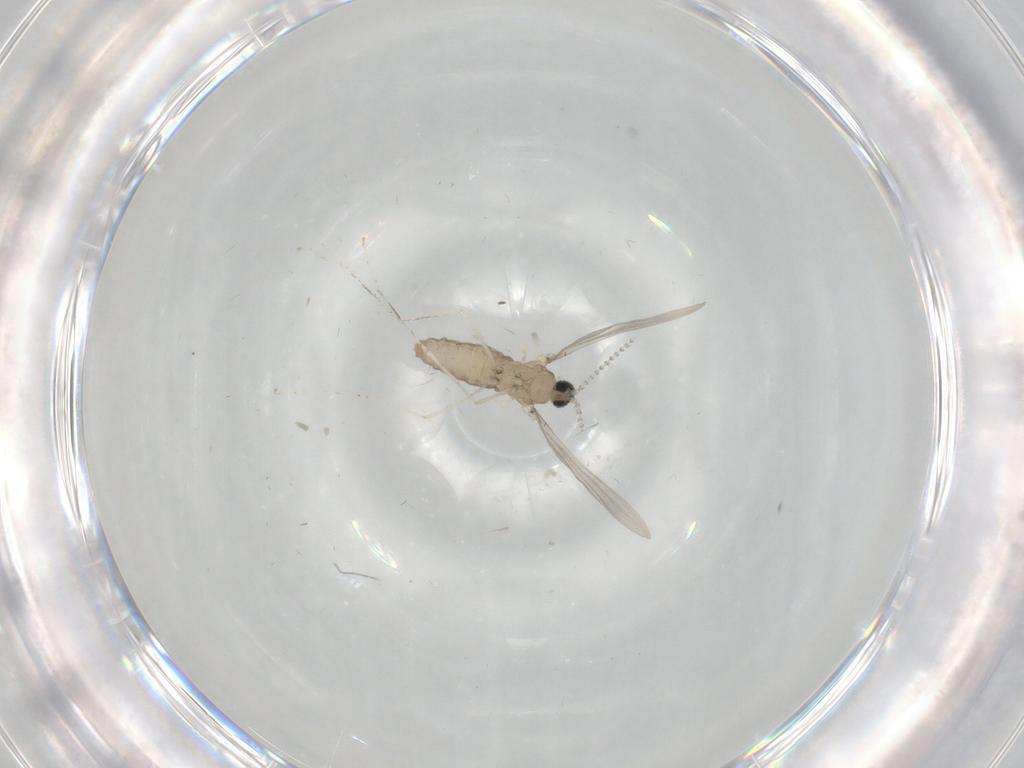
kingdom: Animalia
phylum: Arthropoda
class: Insecta
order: Diptera
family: Cecidomyiidae
